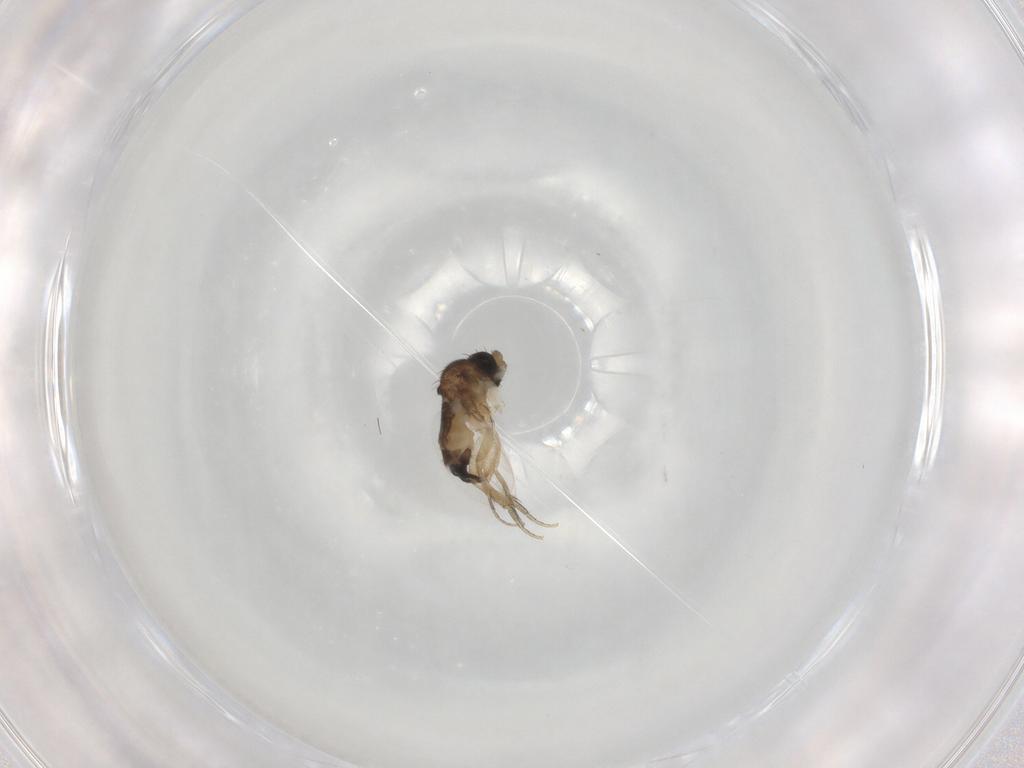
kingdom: Animalia
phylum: Arthropoda
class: Insecta
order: Diptera
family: Phoridae
